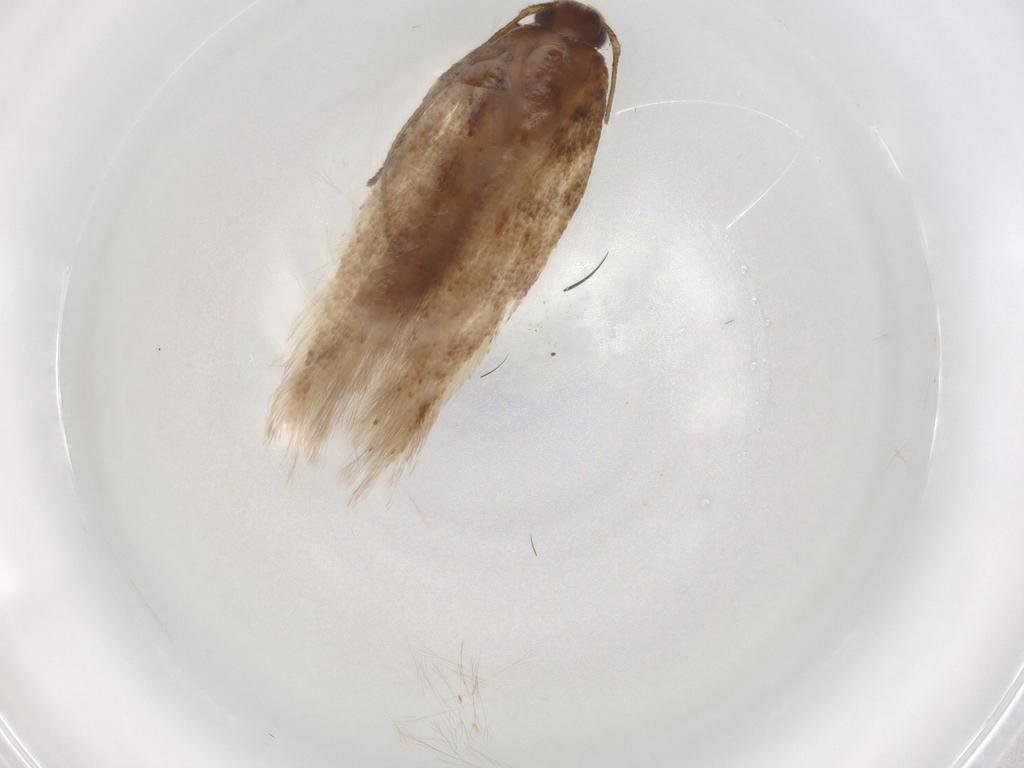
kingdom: Animalia
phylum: Arthropoda
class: Insecta
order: Lepidoptera
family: Gelechiidae
